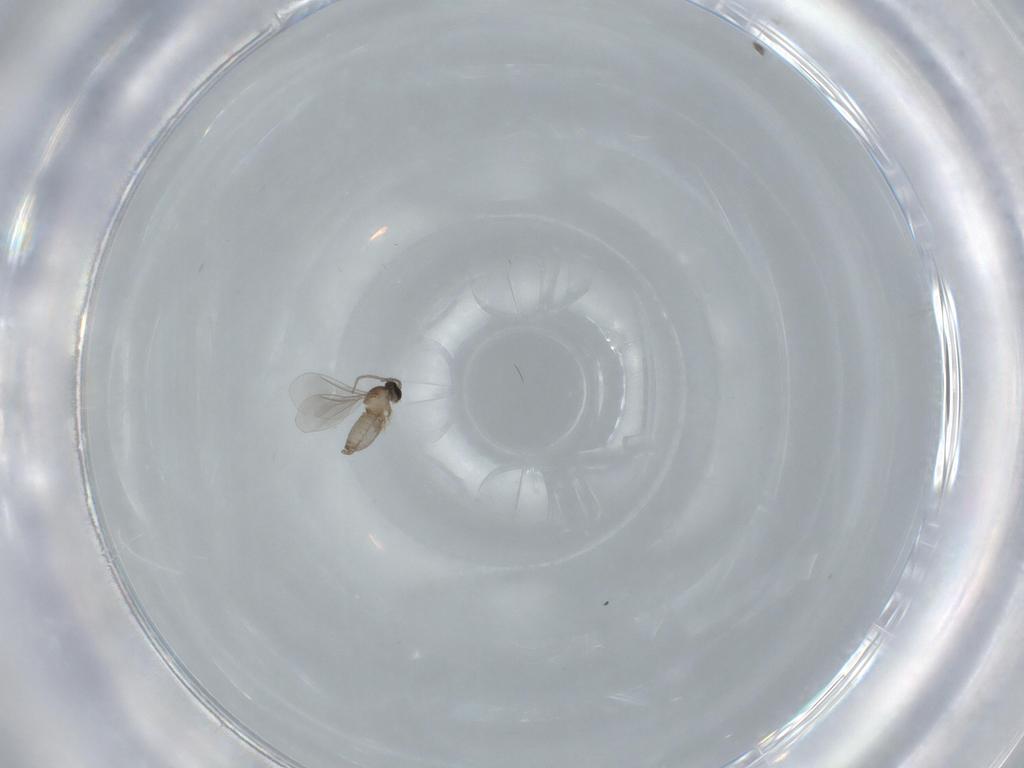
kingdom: Animalia
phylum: Arthropoda
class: Insecta
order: Diptera
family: Cecidomyiidae
